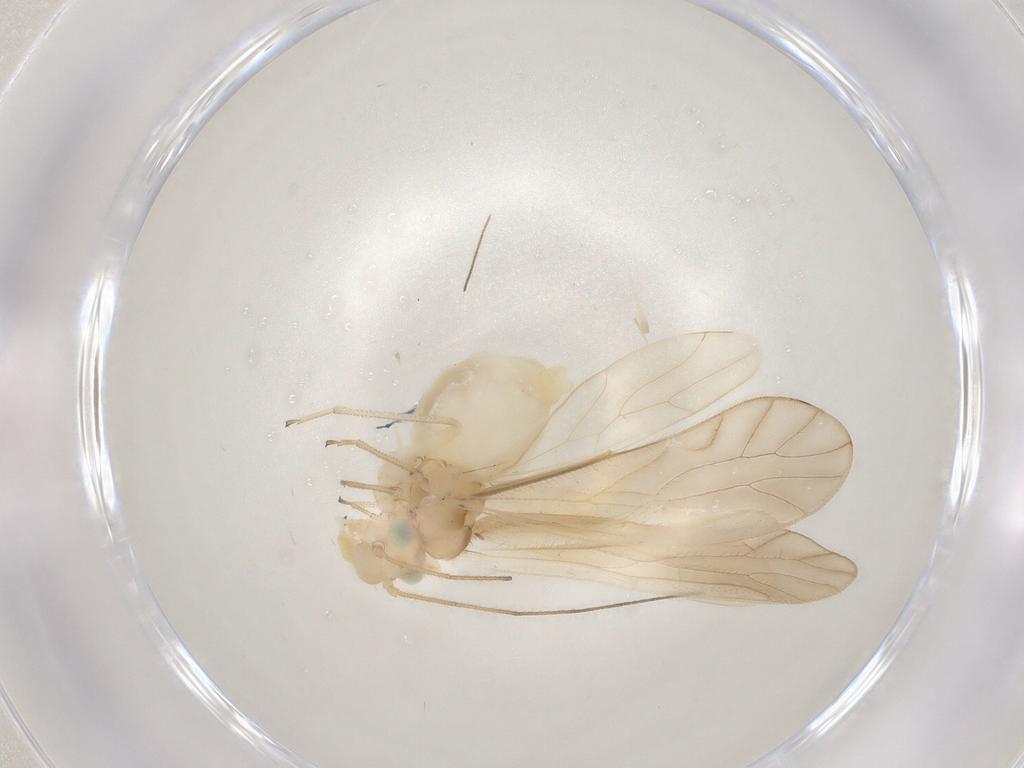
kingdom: Animalia
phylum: Arthropoda
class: Insecta
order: Psocodea
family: Caeciliusidae
